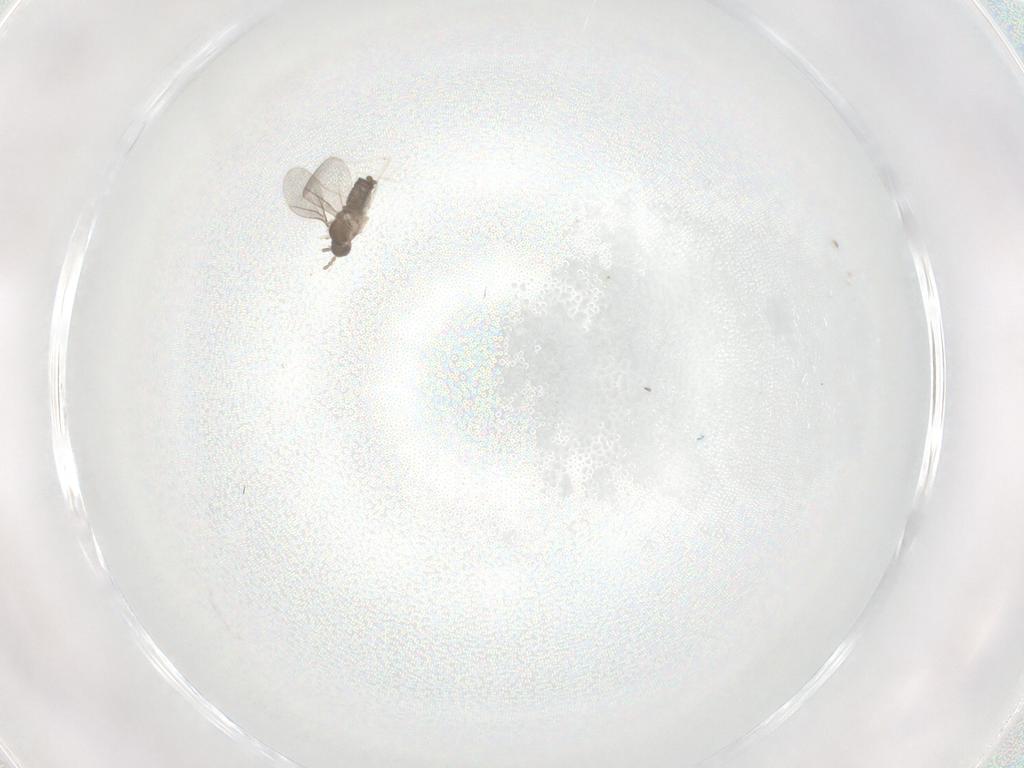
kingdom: Animalia
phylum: Arthropoda
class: Insecta
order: Diptera
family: Cecidomyiidae
